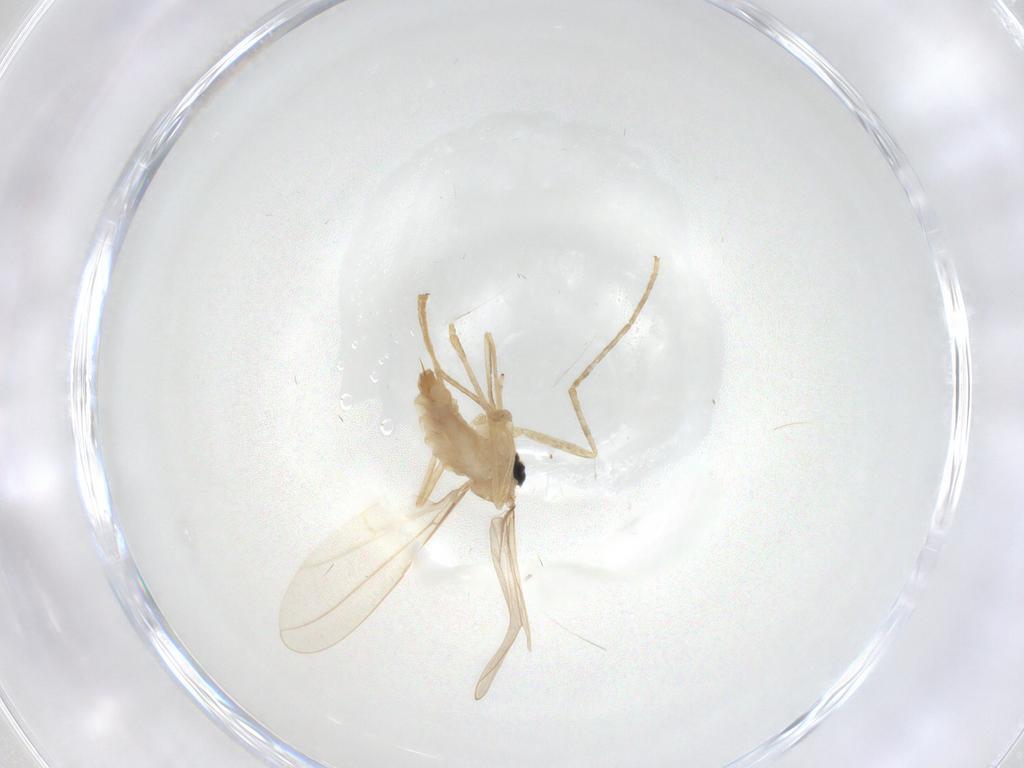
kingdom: Animalia
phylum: Arthropoda
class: Insecta
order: Diptera
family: Cecidomyiidae
